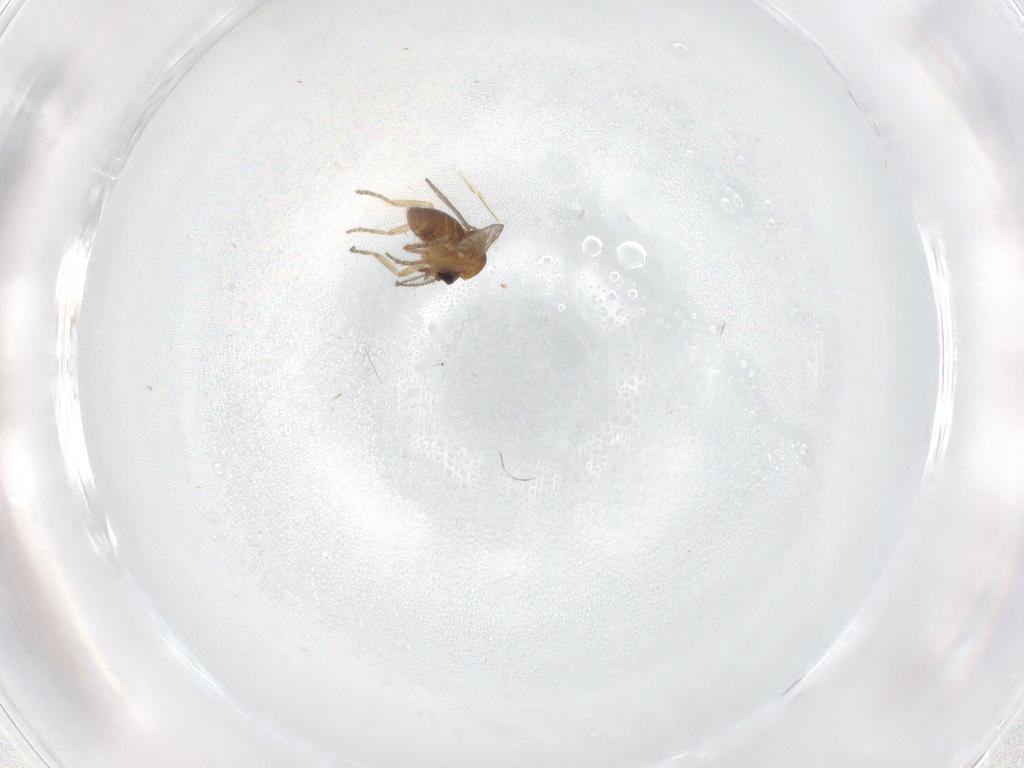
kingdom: Animalia
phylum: Arthropoda
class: Insecta
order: Diptera
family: Ceratopogonidae
